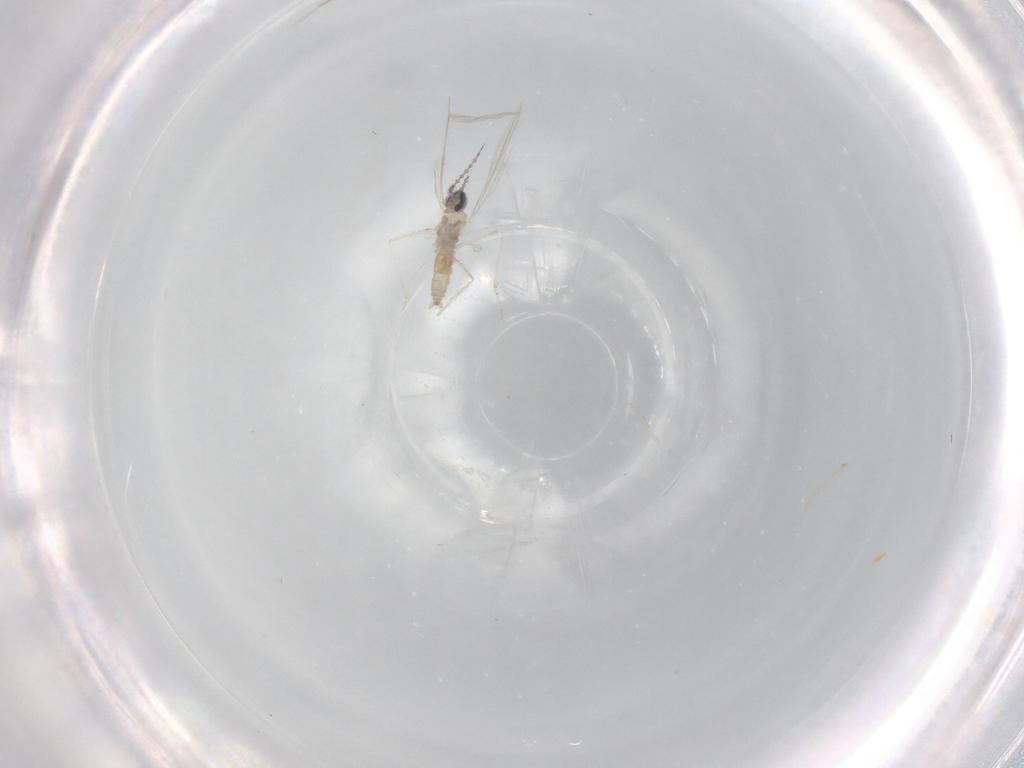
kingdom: Animalia
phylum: Arthropoda
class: Insecta
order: Diptera
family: Cecidomyiidae
